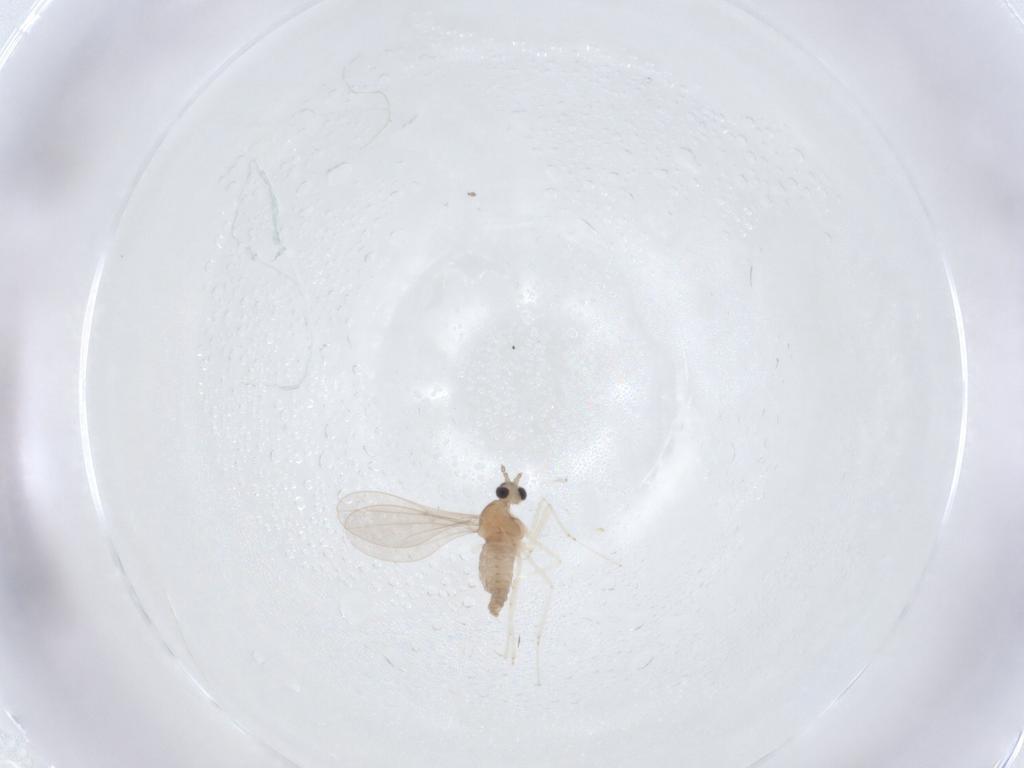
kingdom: Animalia
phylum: Arthropoda
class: Insecta
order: Diptera
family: Cecidomyiidae
